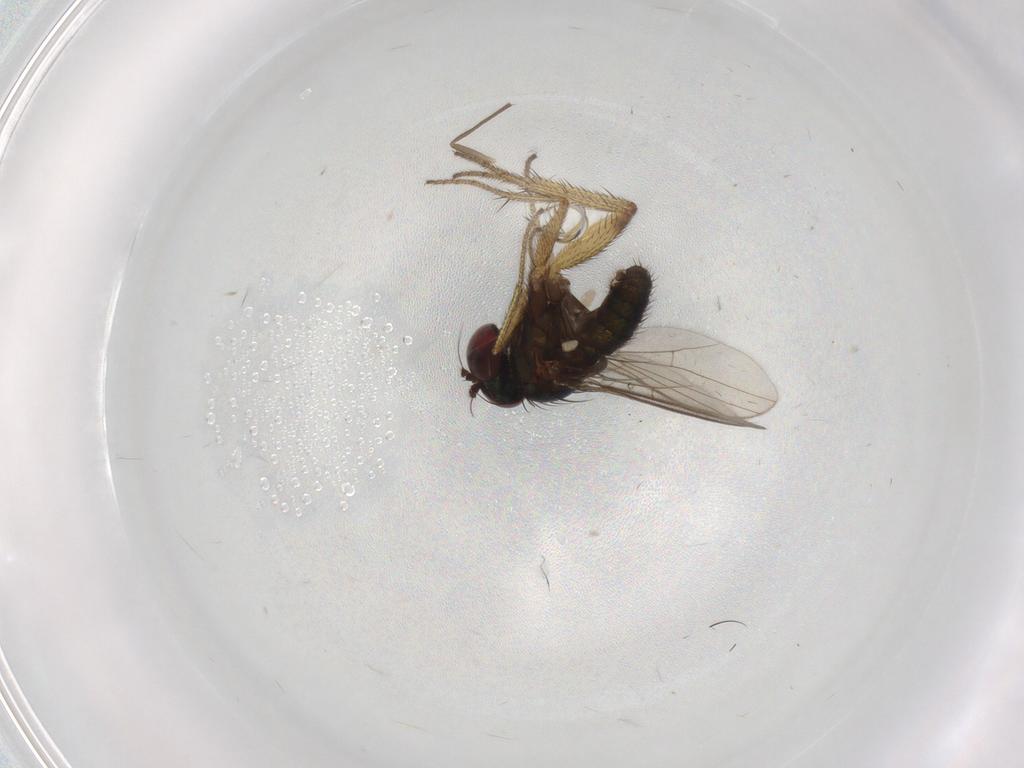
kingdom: Animalia
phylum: Arthropoda
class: Insecta
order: Diptera
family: Chironomidae
